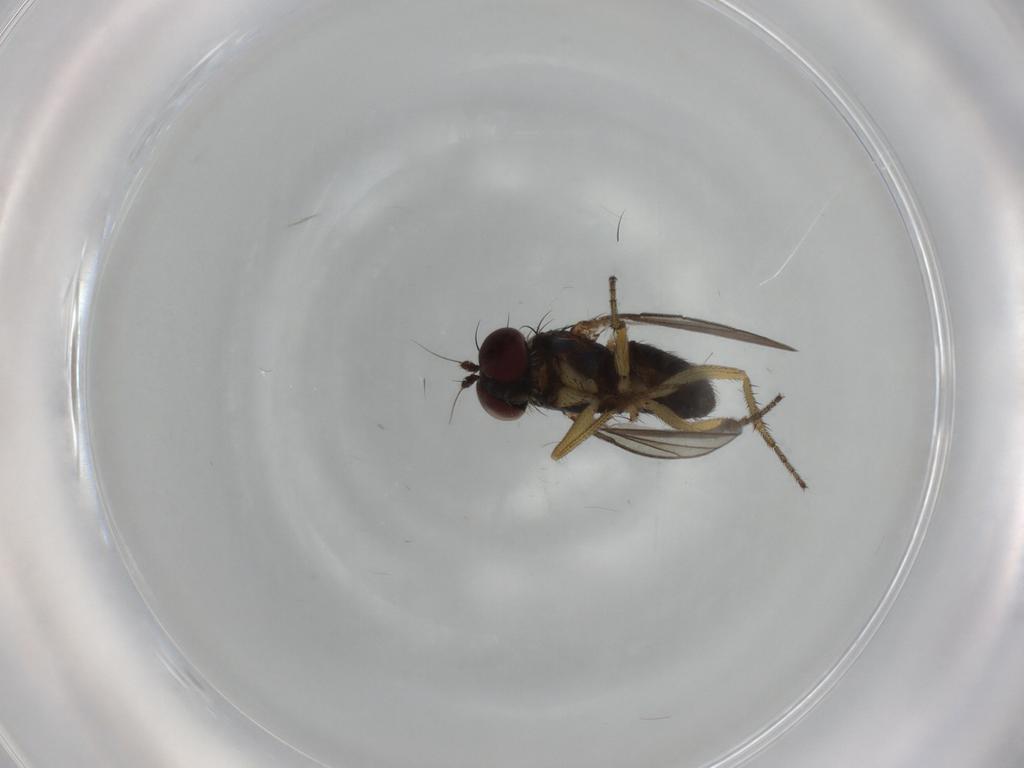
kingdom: Animalia
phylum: Arthropoda
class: Insecta
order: Diptera
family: Dolichopodidae
